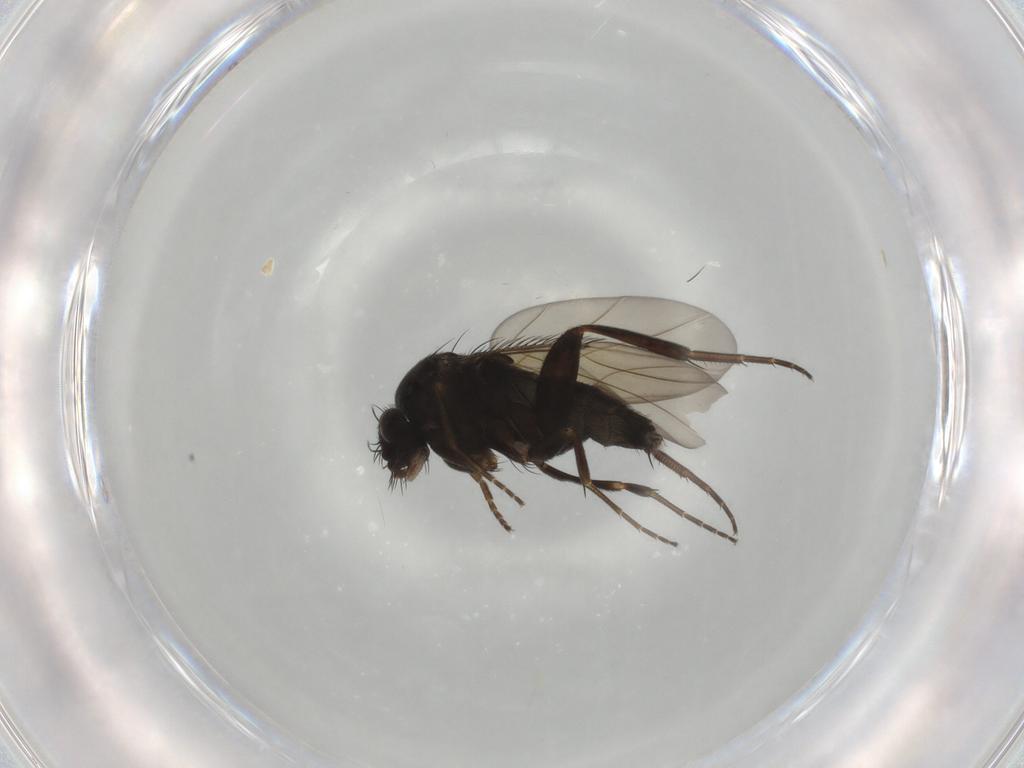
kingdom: Animalia
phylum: Arthropoda
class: Insecta
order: Diptera
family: Phoridae
